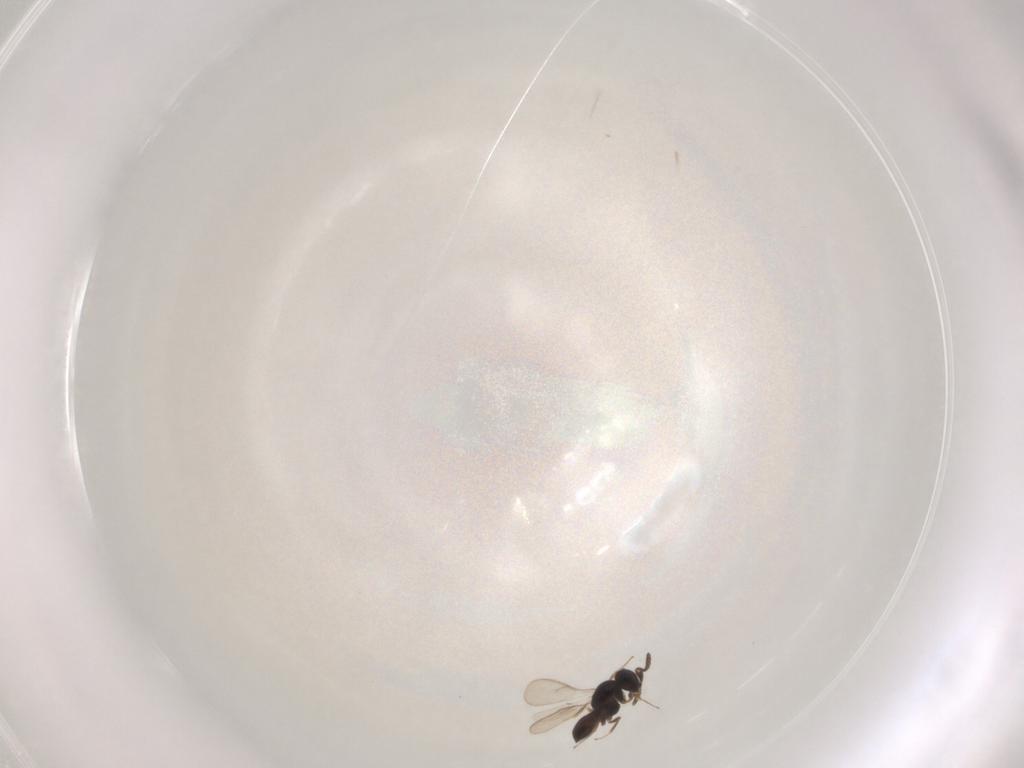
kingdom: Animalia
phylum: Arthropoda
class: Insecta
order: Hymenoptera
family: Scelionidae
